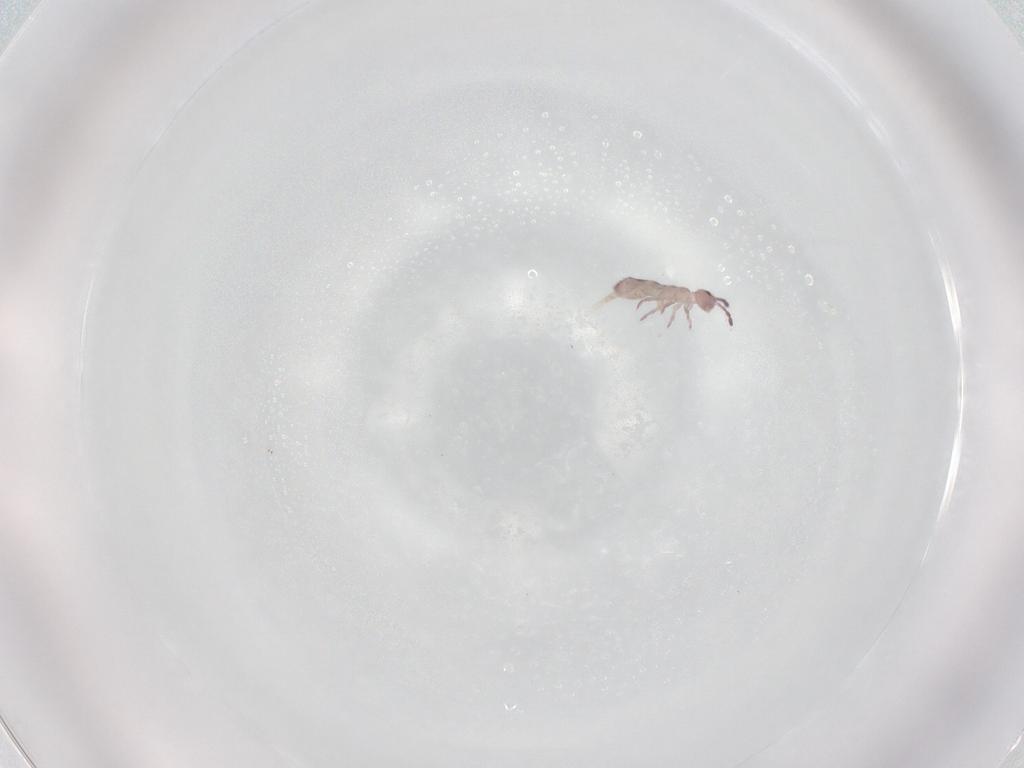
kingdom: Animalia
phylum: Arthropoda
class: Collembola
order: Entomobryomorpha
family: Isotomidae
